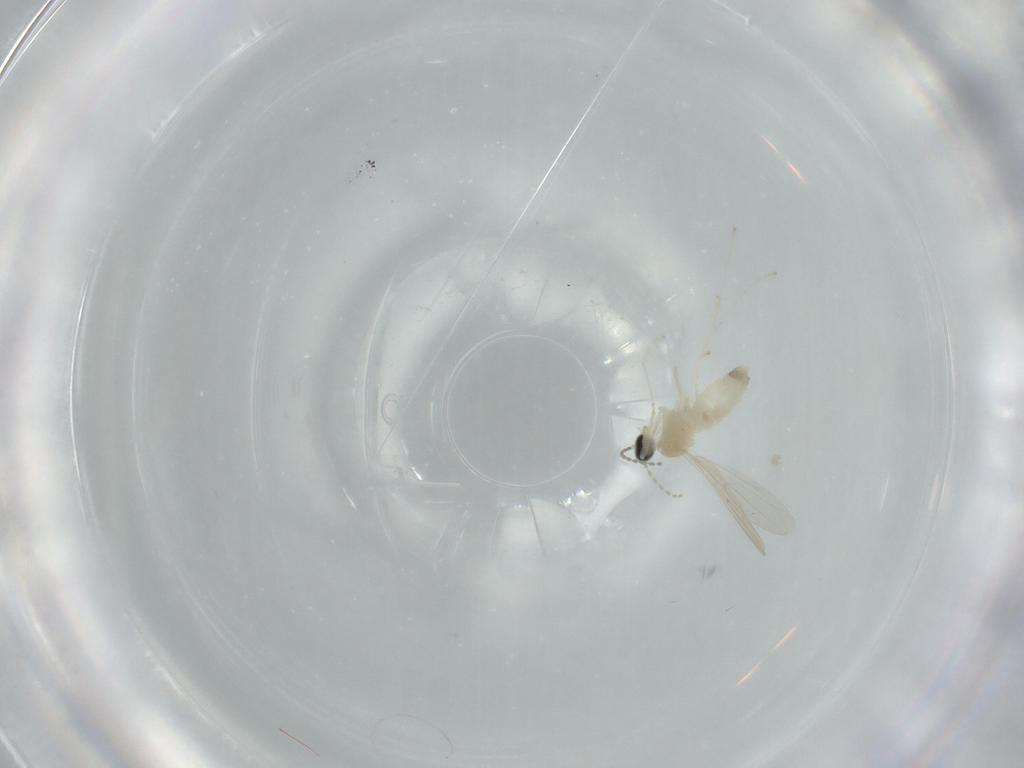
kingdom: Animalia
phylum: Arthropoda
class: Insecta
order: Diptera
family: Cecidomyiidae
